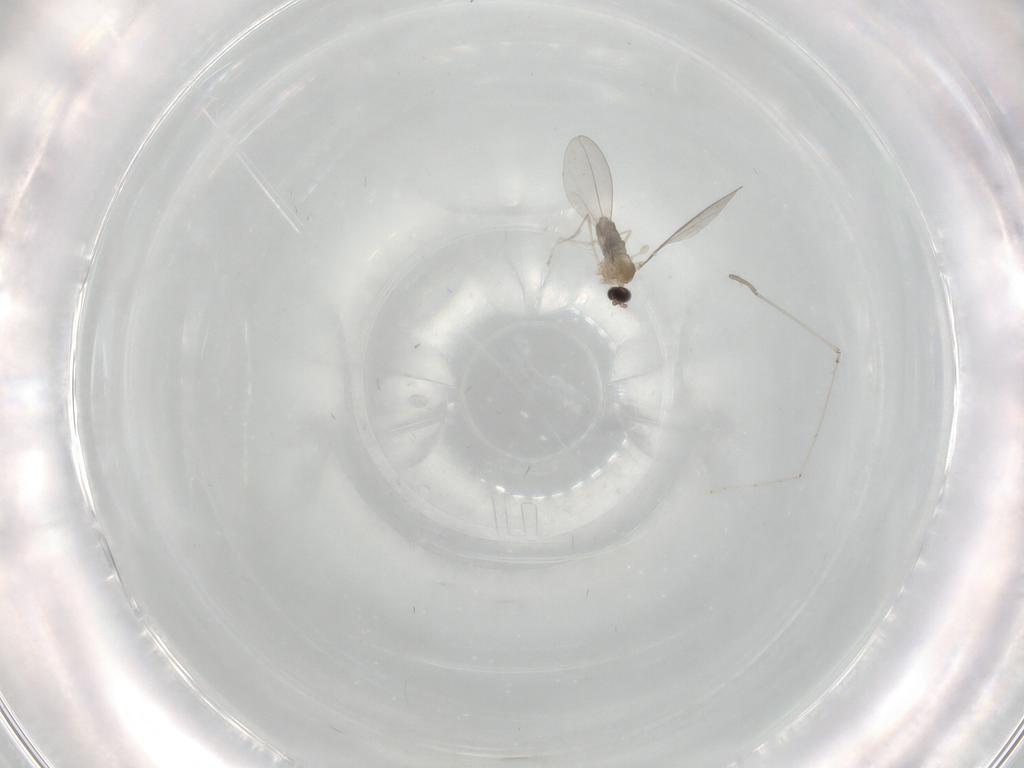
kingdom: Animalia
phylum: Arthropoda
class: Insecta
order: Diptera
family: Cecidomyiidae
